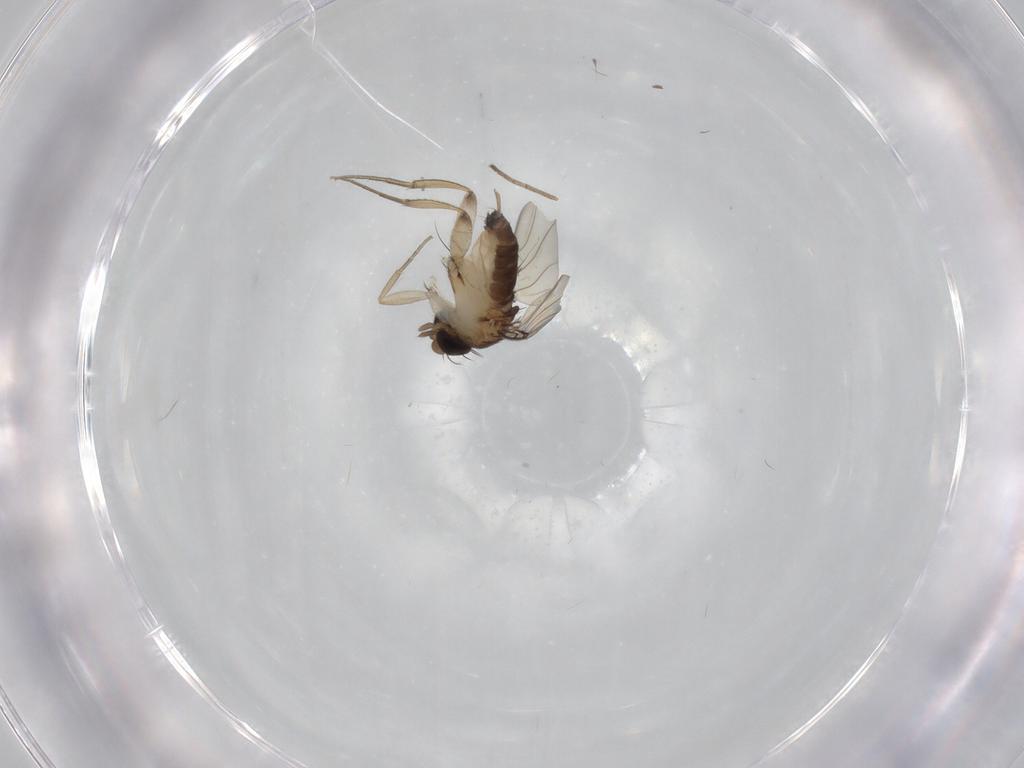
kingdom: Animalia
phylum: Arthropoda
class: Insecta
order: Diptera
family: Phoridae
